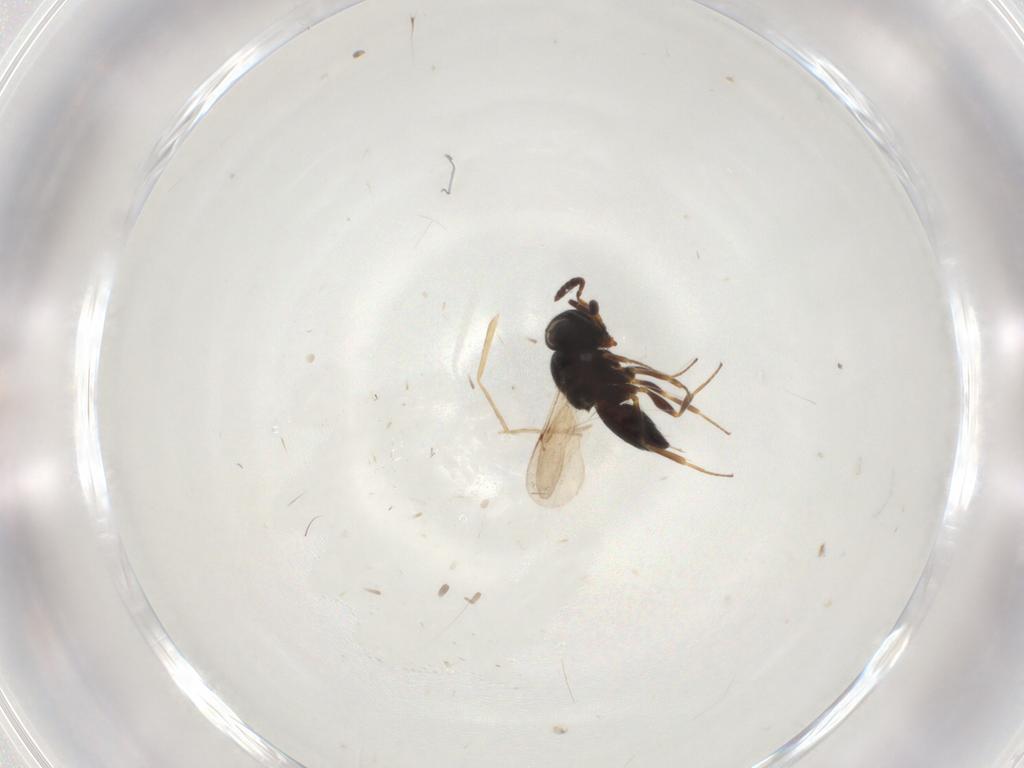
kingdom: Animalia
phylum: Arthropoda
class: Insecta
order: Hymenoptera
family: Scelionidae
